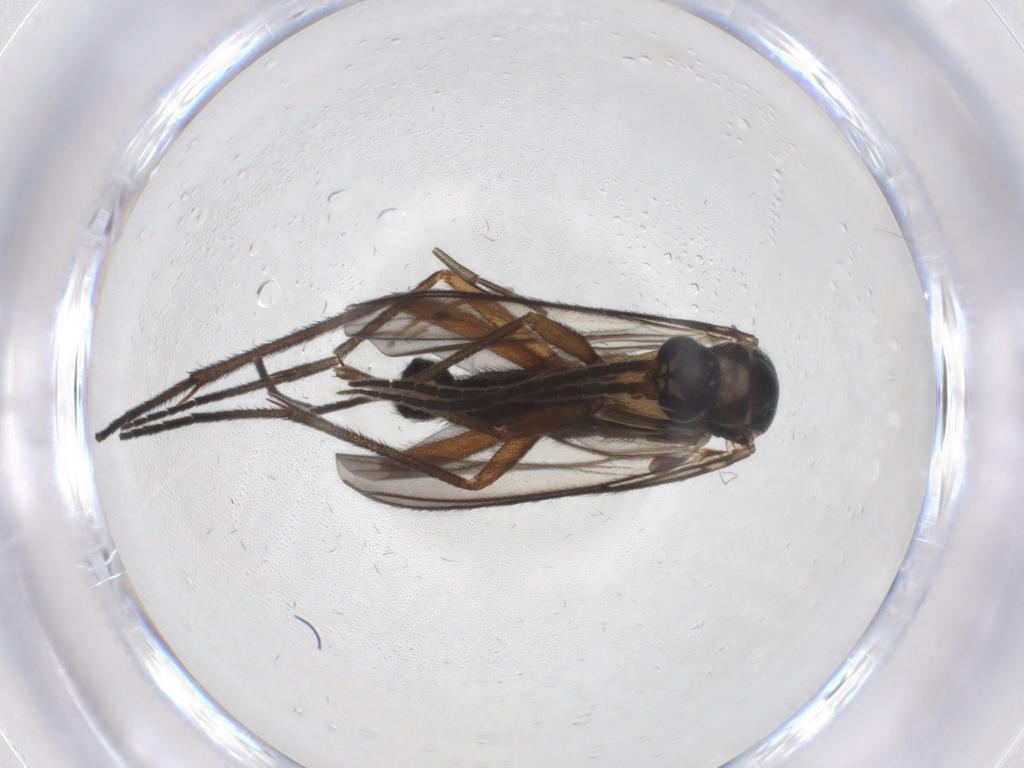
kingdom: Animalia
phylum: Arthropoda
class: Insecta
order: Diptera
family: Sciaridae
